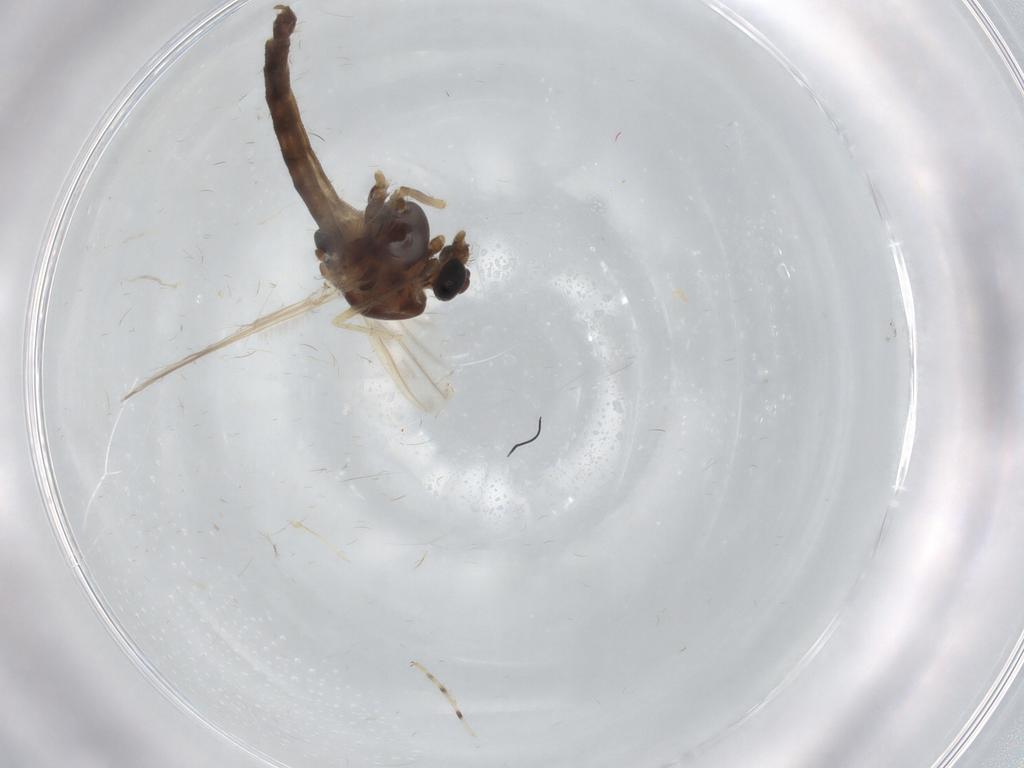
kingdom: Animalia
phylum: Arthropoda
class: Insecta
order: Diptera
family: Chironomidae
